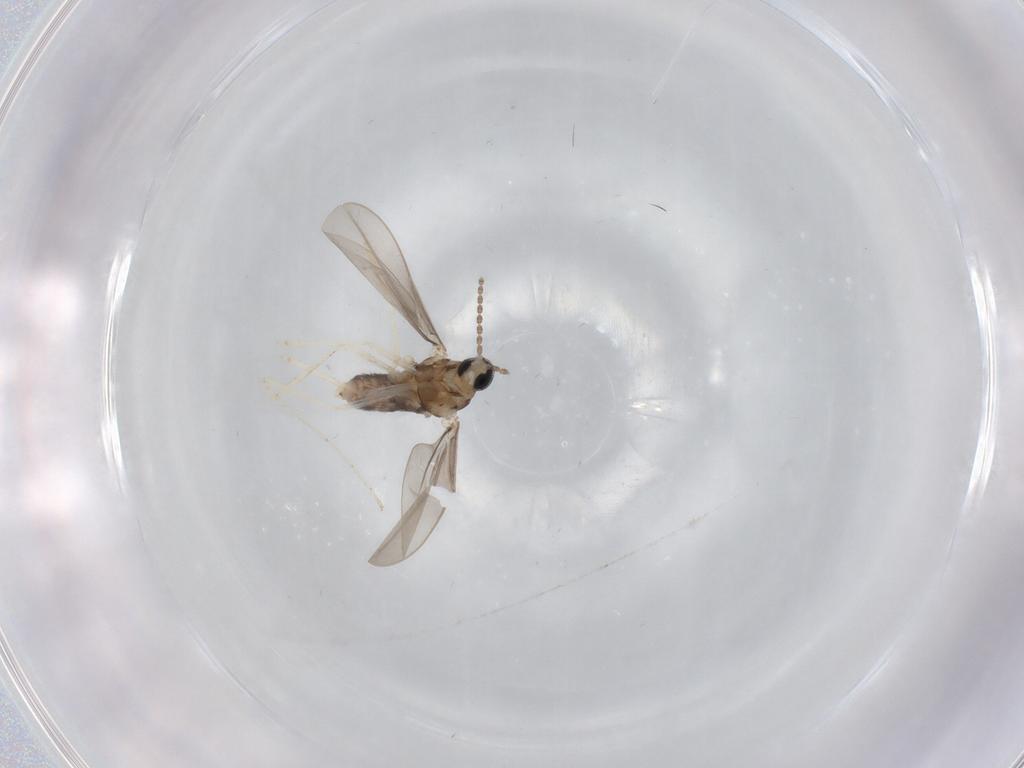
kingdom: Animalia
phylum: Arthropoda
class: Insecta
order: Diptera
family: Cecidomyiidae
